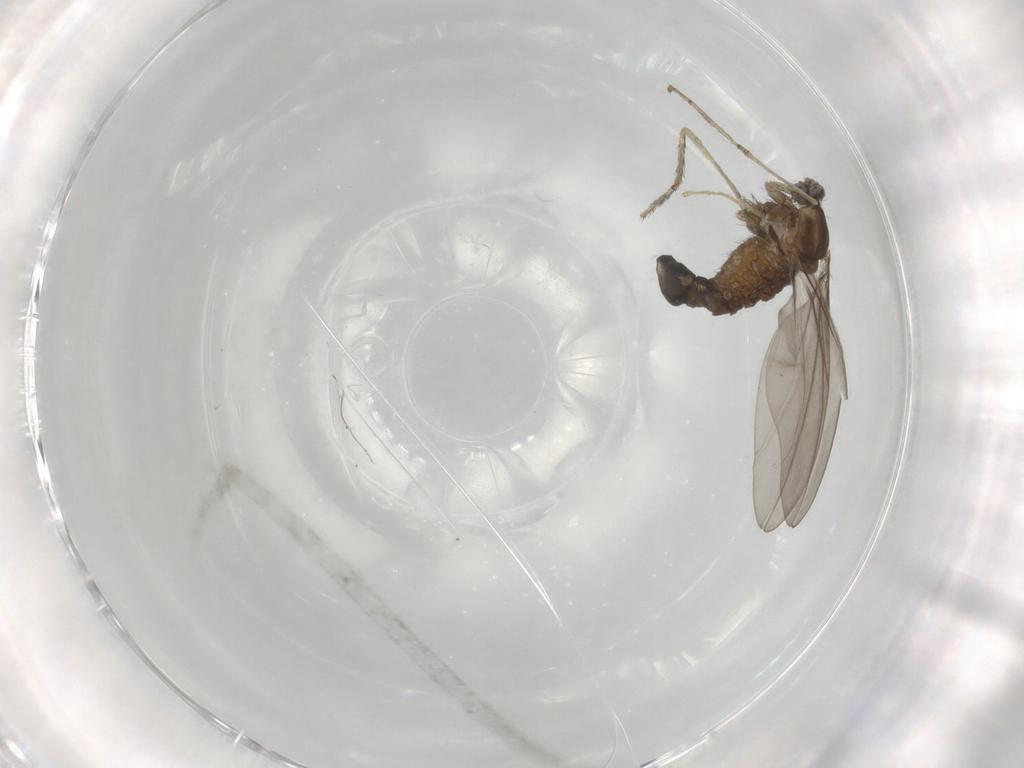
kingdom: Animalia
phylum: Arthropoda
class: Insecta
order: Diptera
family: Cecidomyiidae
